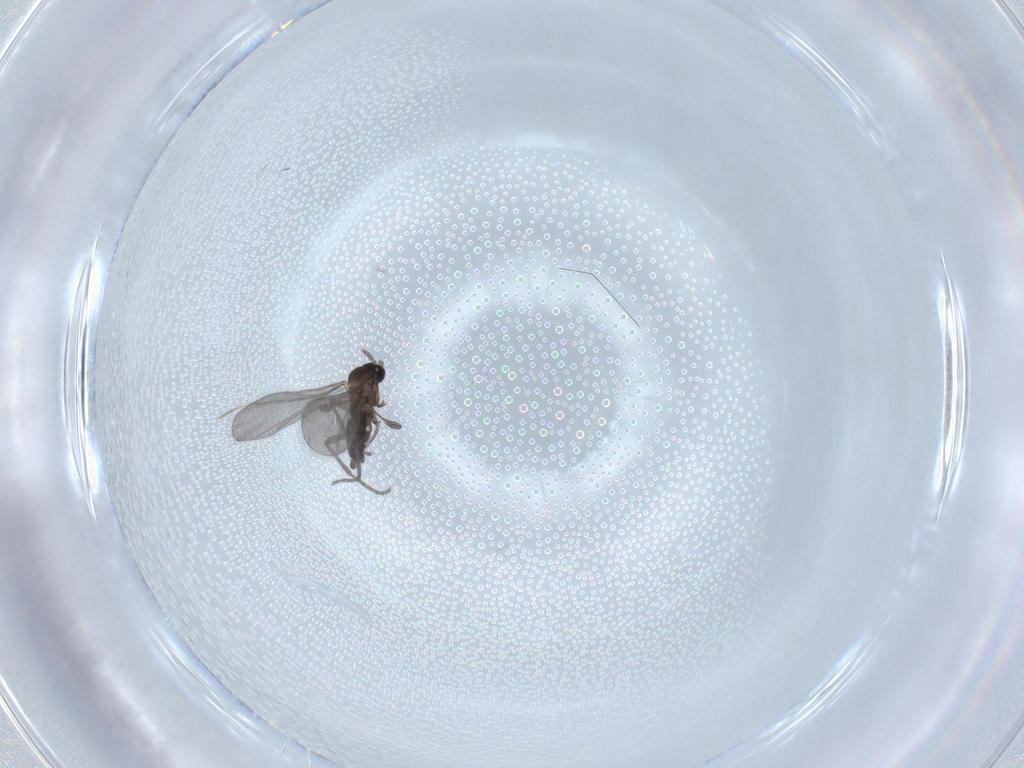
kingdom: Animalia
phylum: Arthropoda
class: Insecta
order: Diptera
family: Sciaridae
